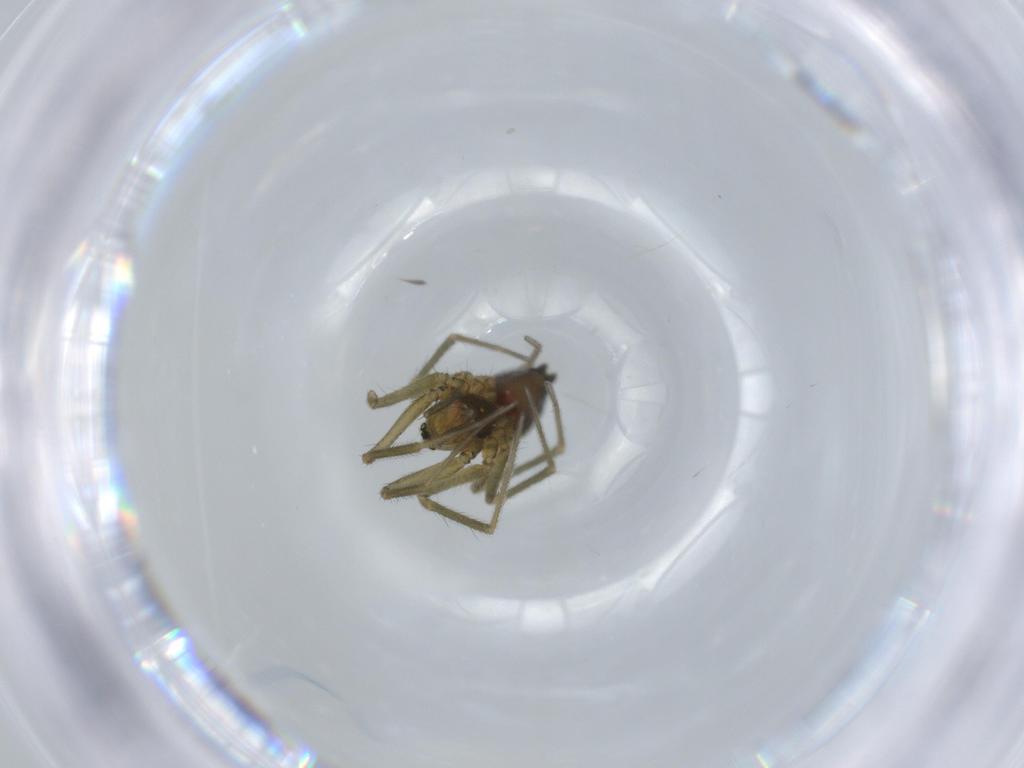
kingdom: Animalia
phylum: Arthropoda
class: Arachnida
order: Araneae
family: Linyphiidae
